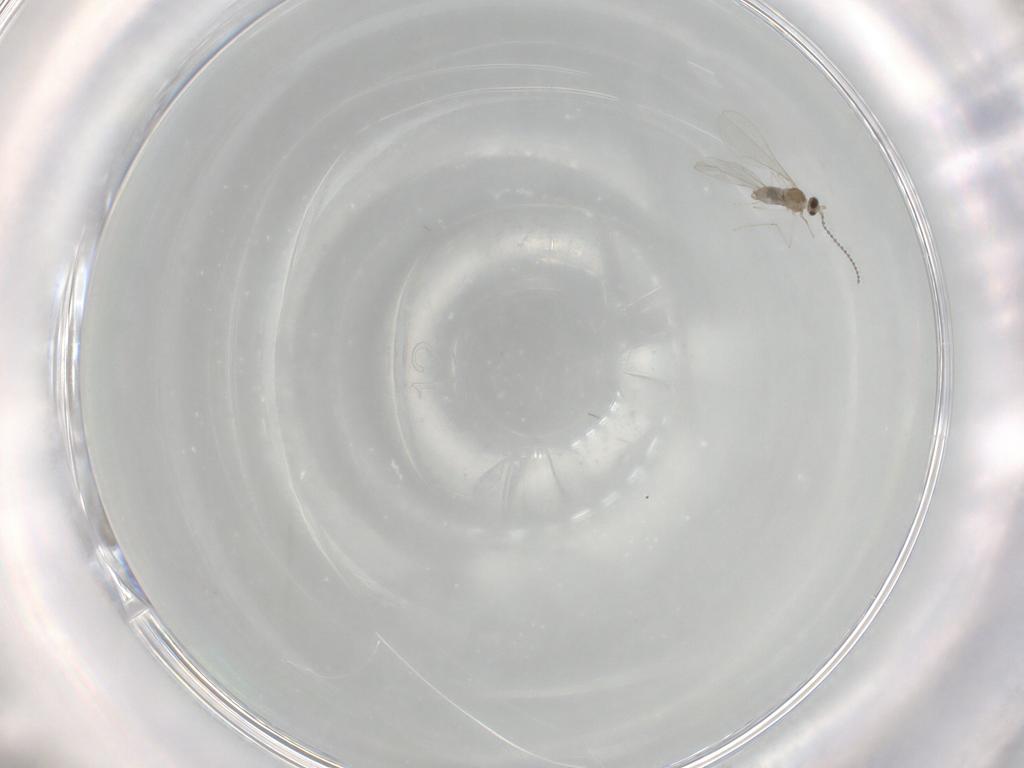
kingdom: Animalia
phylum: Arthropoda
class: Insecta
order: Diptera
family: Cecidomyiidae
